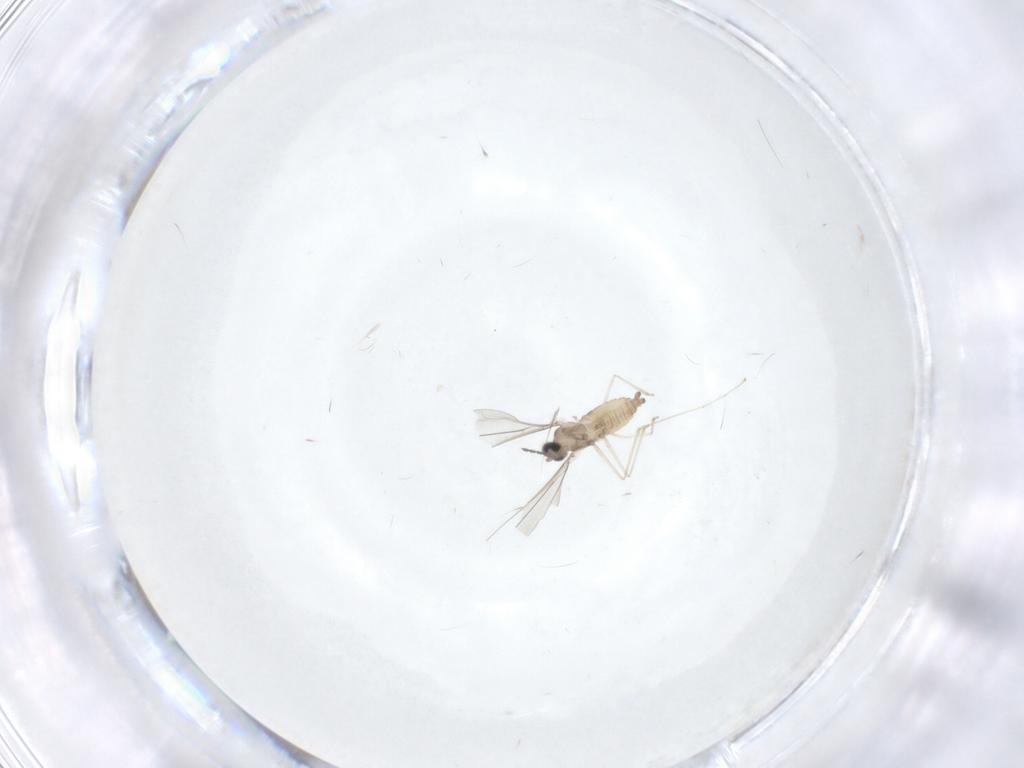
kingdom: Animalia
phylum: Arthropoda
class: Insecta
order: Diptera
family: Cecidomyiidae
